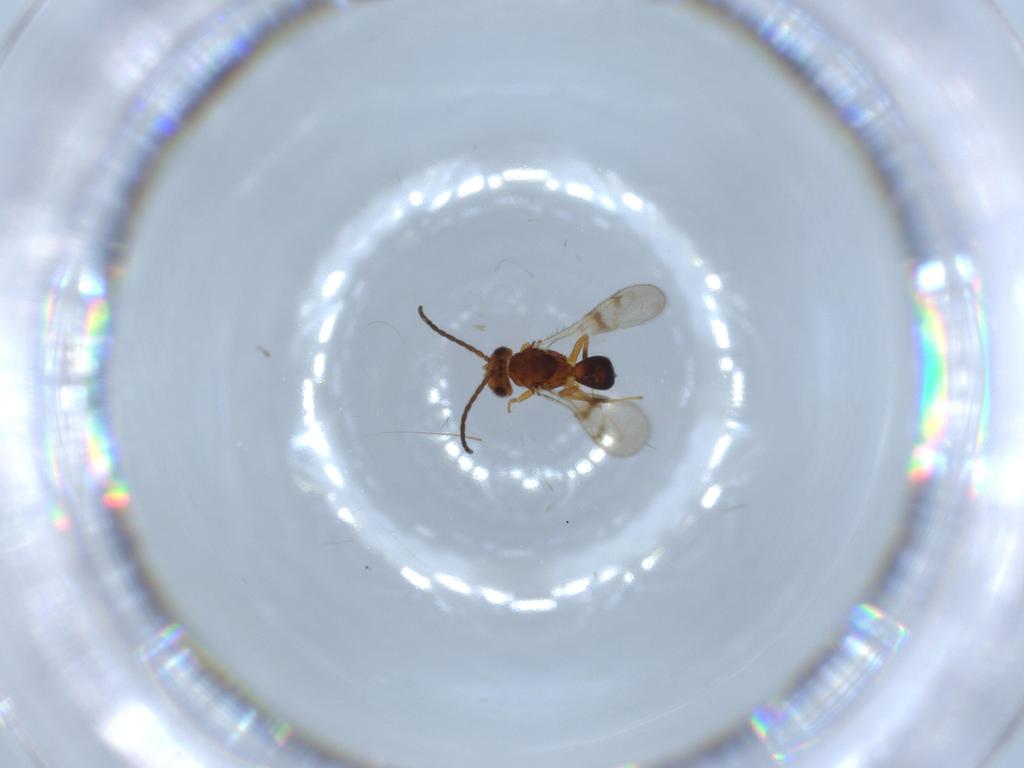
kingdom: Animalia
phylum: Arthropoda
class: Insecta
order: Hymenoptera
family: Diparidae
